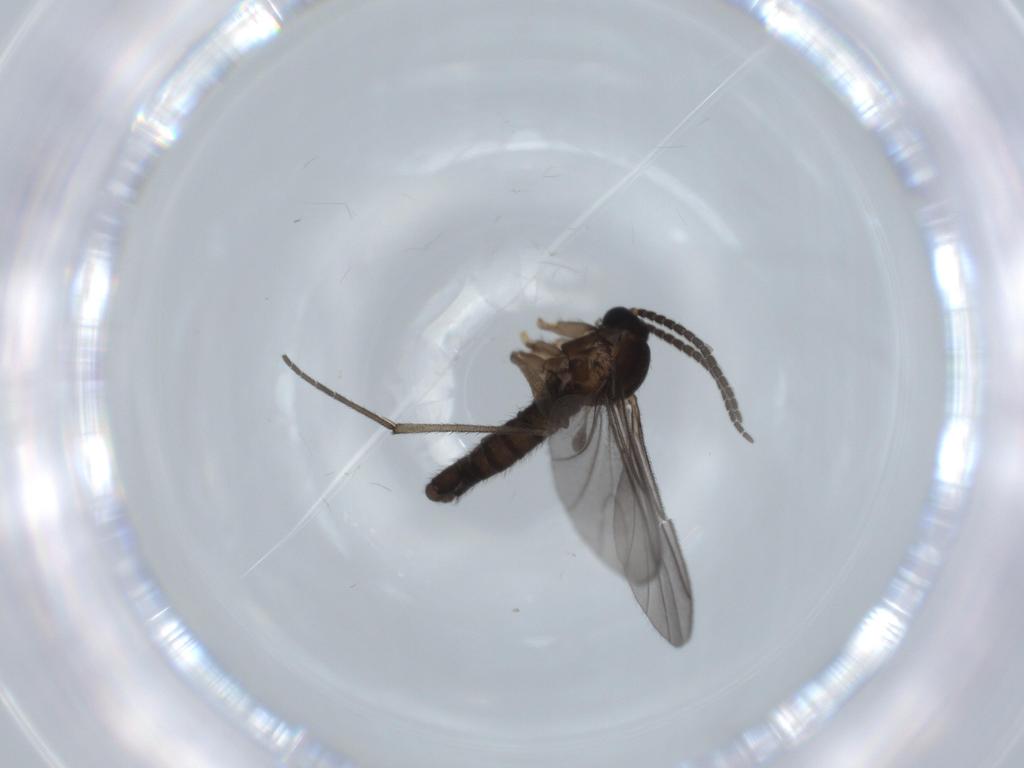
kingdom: Animalia
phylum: Arthropoda
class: Insecta
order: Diptera
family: Sciaridae
